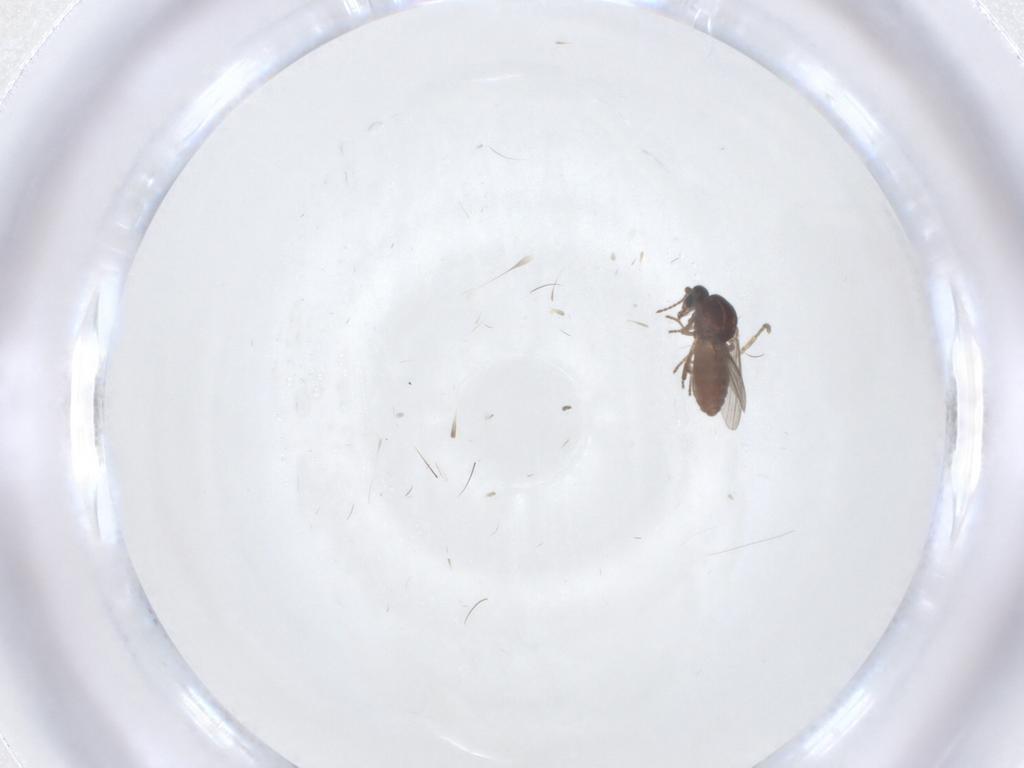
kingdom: Animalia
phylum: Arthropoda
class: Insecta
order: Diptera
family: Ceratopogonidae
